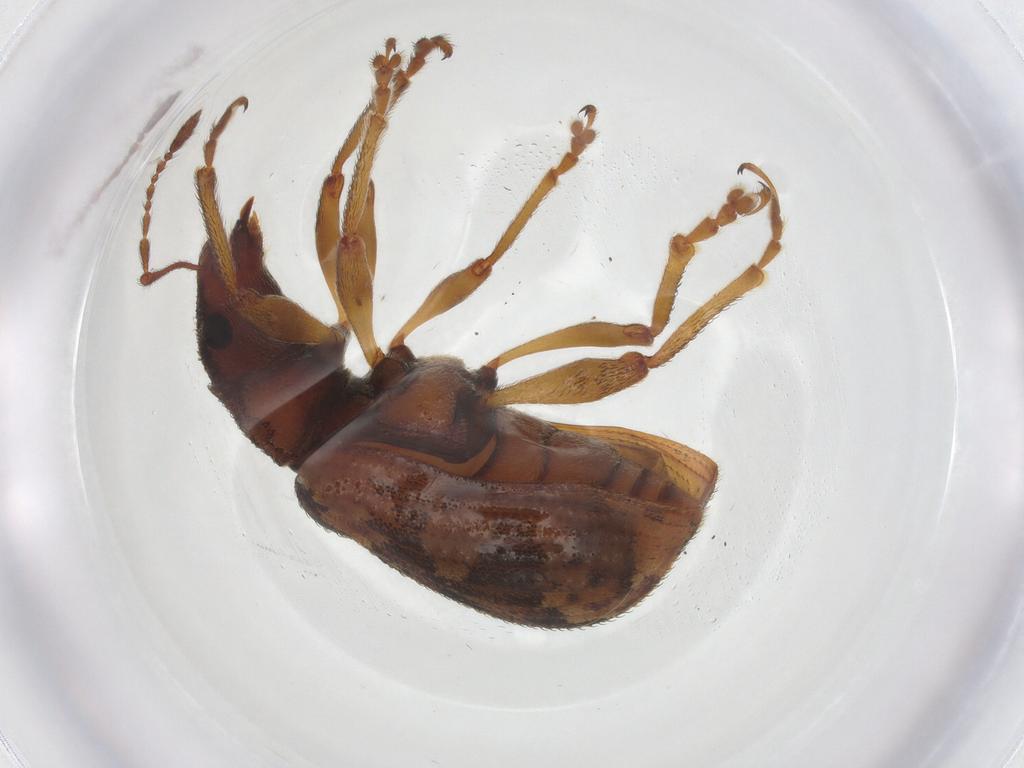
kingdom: Animalia
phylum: Arthropoda
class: Insecta
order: Coleoptera
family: Curculionidae
